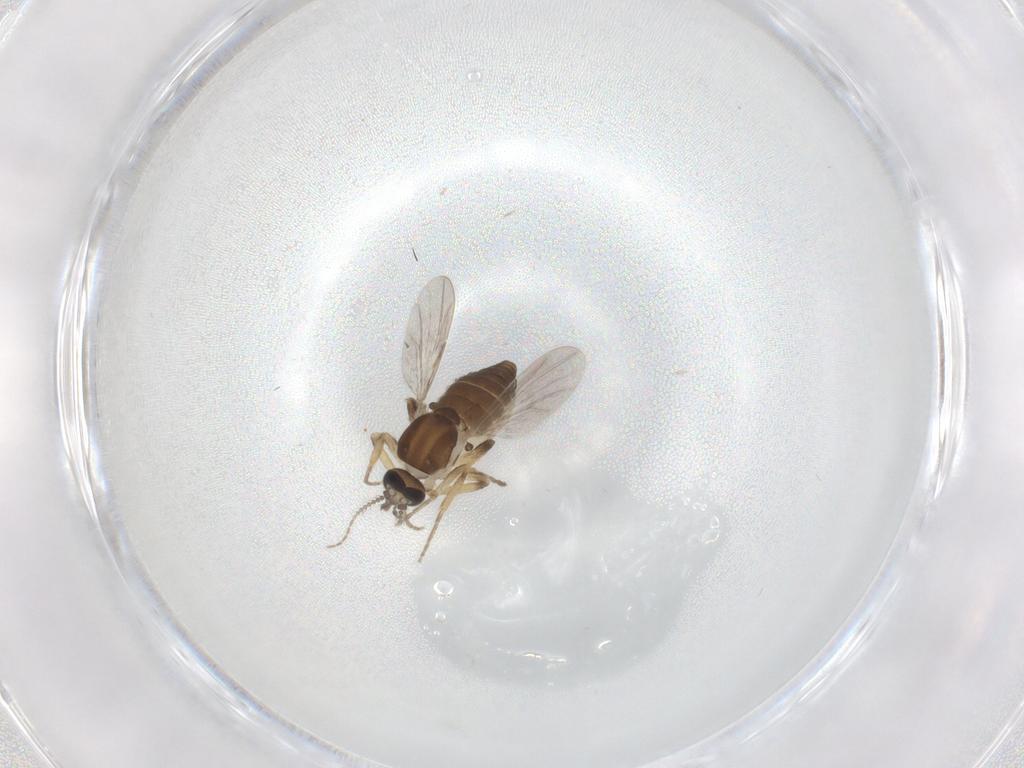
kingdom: Animalia
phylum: Arthropoda
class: Insecta
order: Diptera
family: Ceratopogonidae
